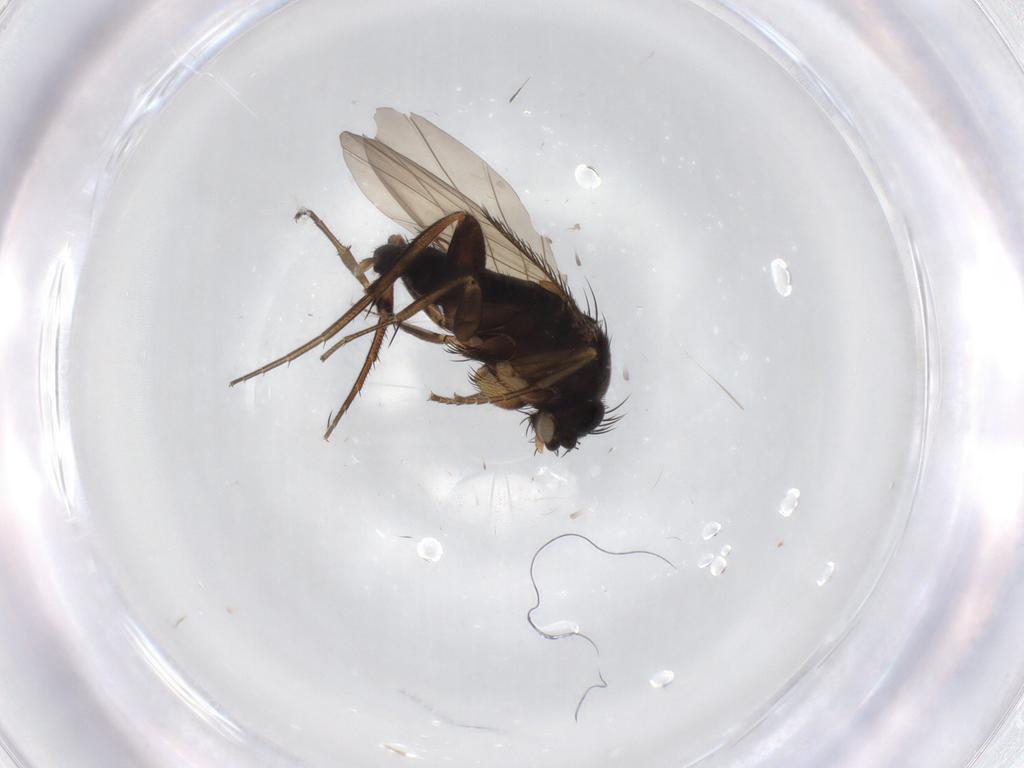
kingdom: Animalia
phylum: Arthropoda
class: Insecta
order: Diptera
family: Phoridae
